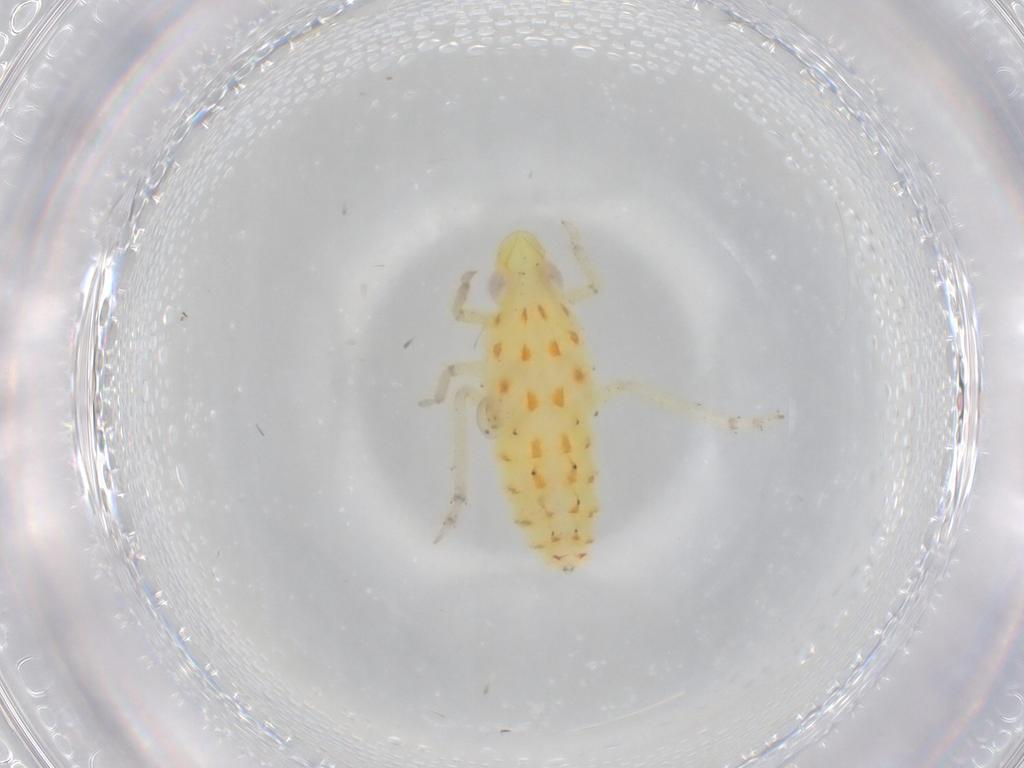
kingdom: Animalia
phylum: Arthropoda
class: Insecta
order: Hemiptera
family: Tropiduchidae
